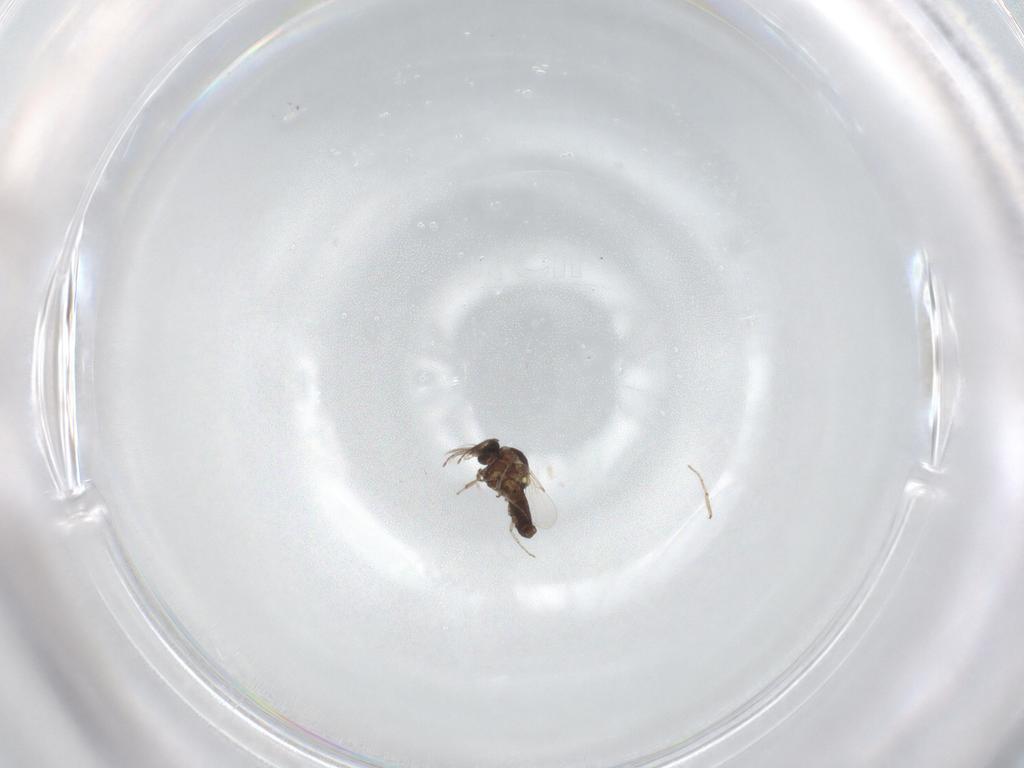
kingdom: Animalia
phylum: Arthropoda
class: Insecta
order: Diptera
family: Ceratopogonidae
